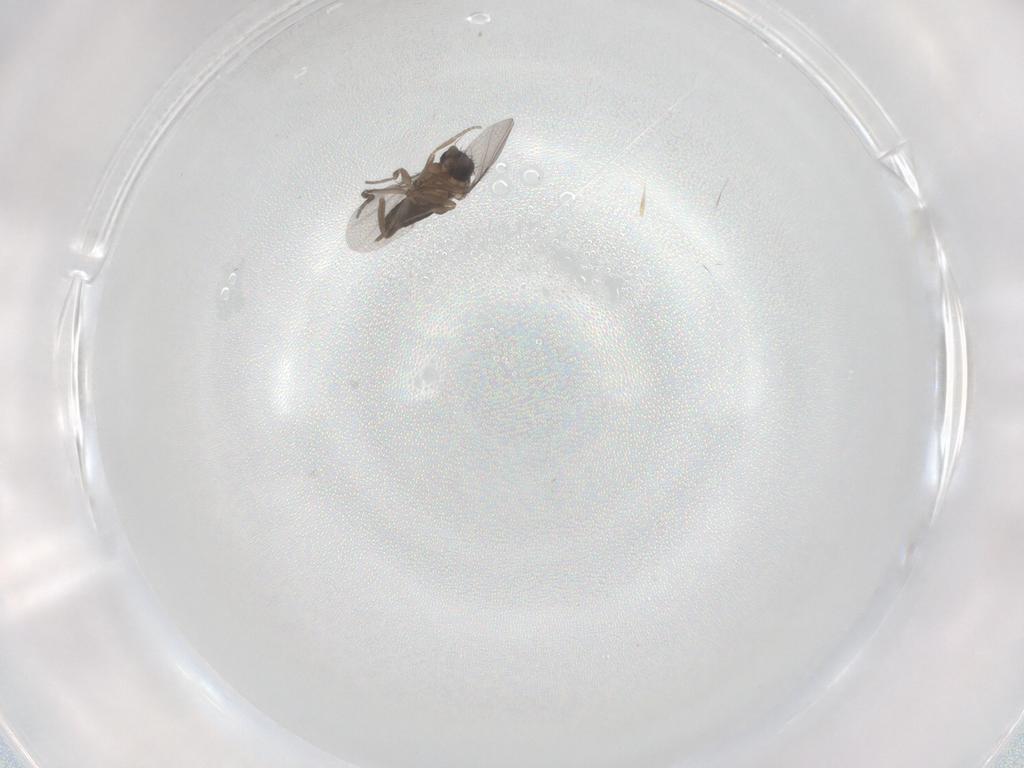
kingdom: Animalia
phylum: Arthropoda
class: Insecta
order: Diptera
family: Phoridae
